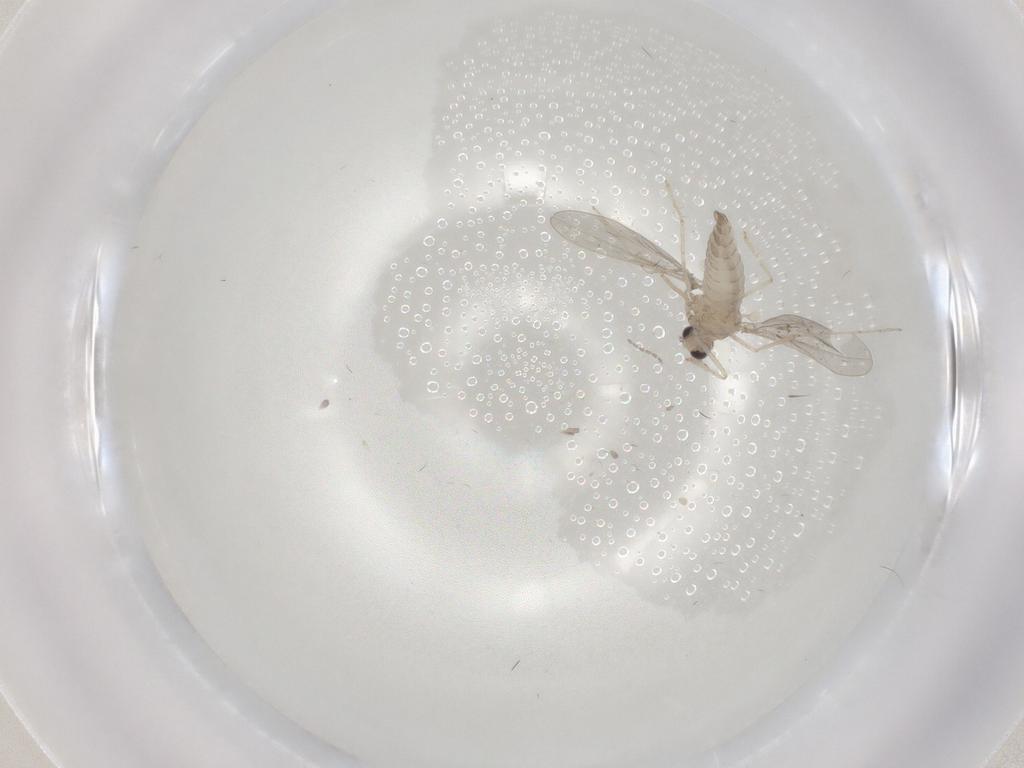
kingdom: Animalia
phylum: Arthropoda
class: Insecta
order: Diptera
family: Cecidomyiidae
